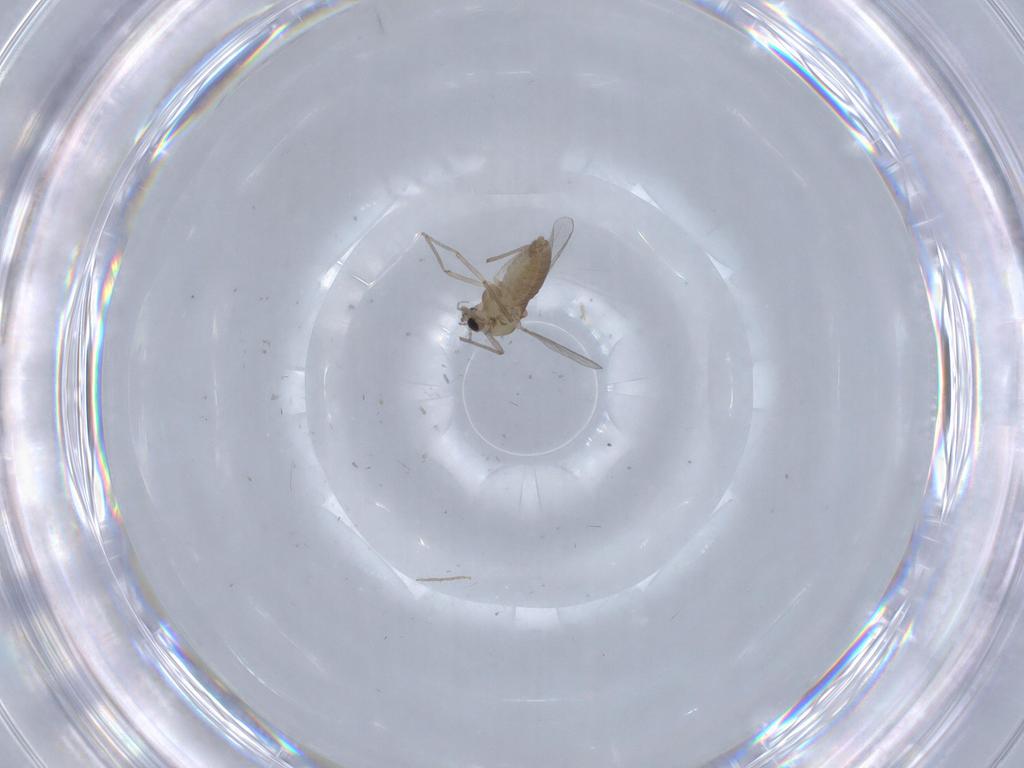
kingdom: Animalia
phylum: Arthropoda
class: Insecta
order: Diptera
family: Chironomidae
